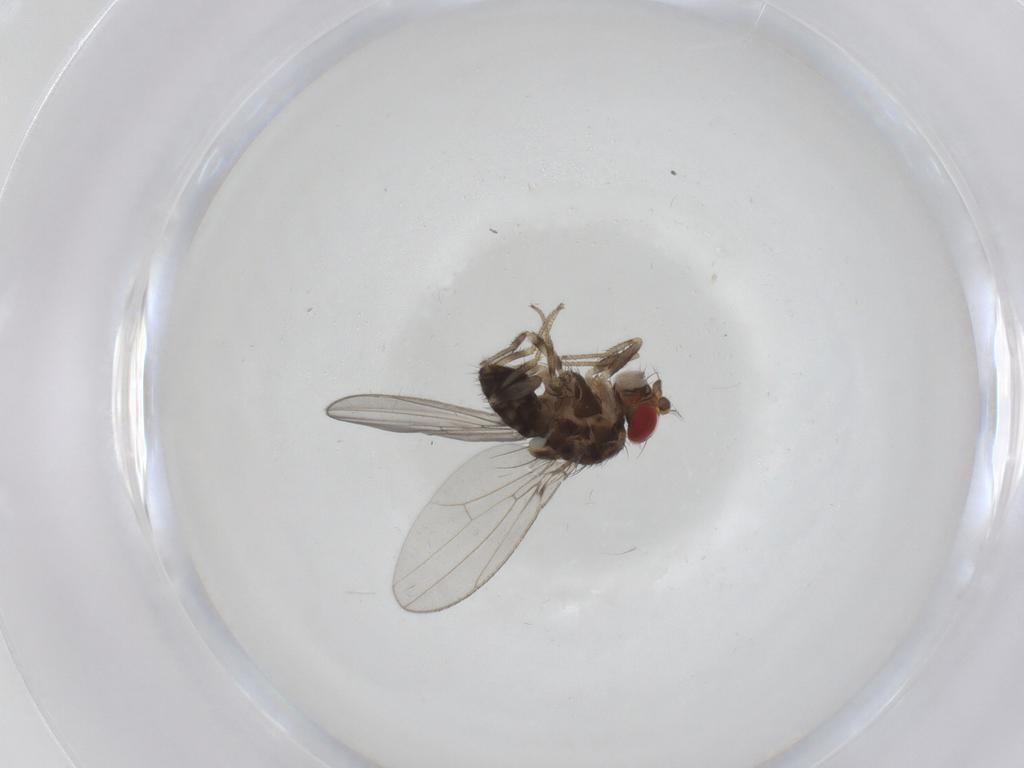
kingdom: Animalia
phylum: Arthropoda
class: Insecta
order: Diptera
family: Drosophilidae
